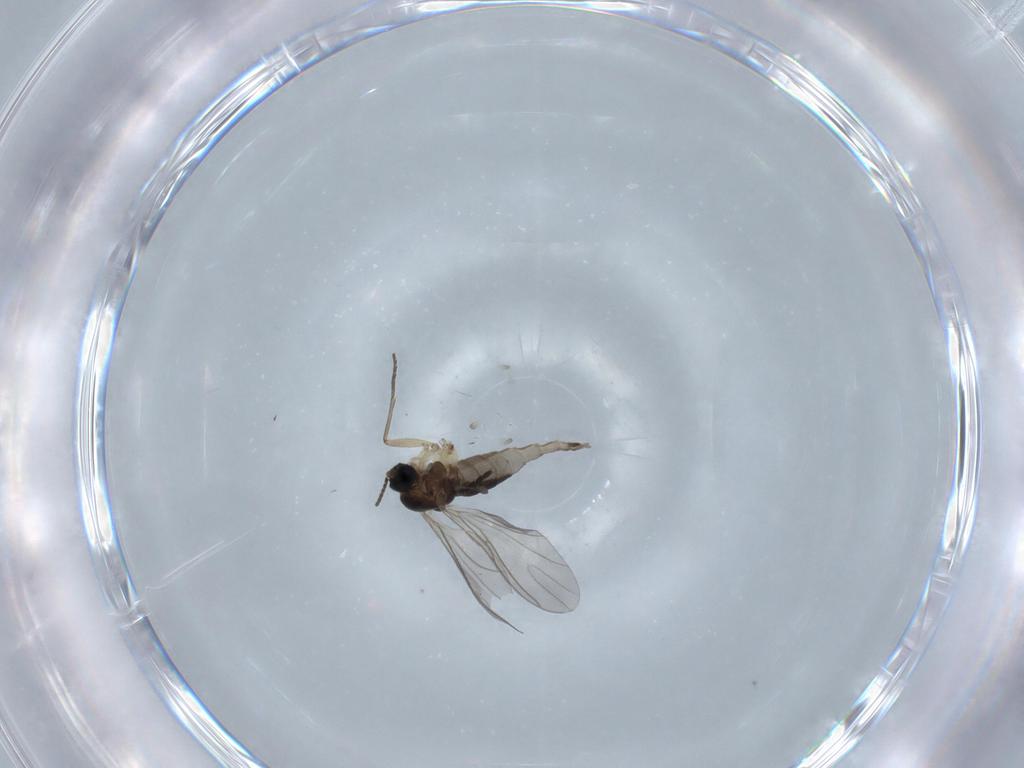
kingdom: Animalia
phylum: Arthropoda
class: Insecta
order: Diptera
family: Sciaridae
